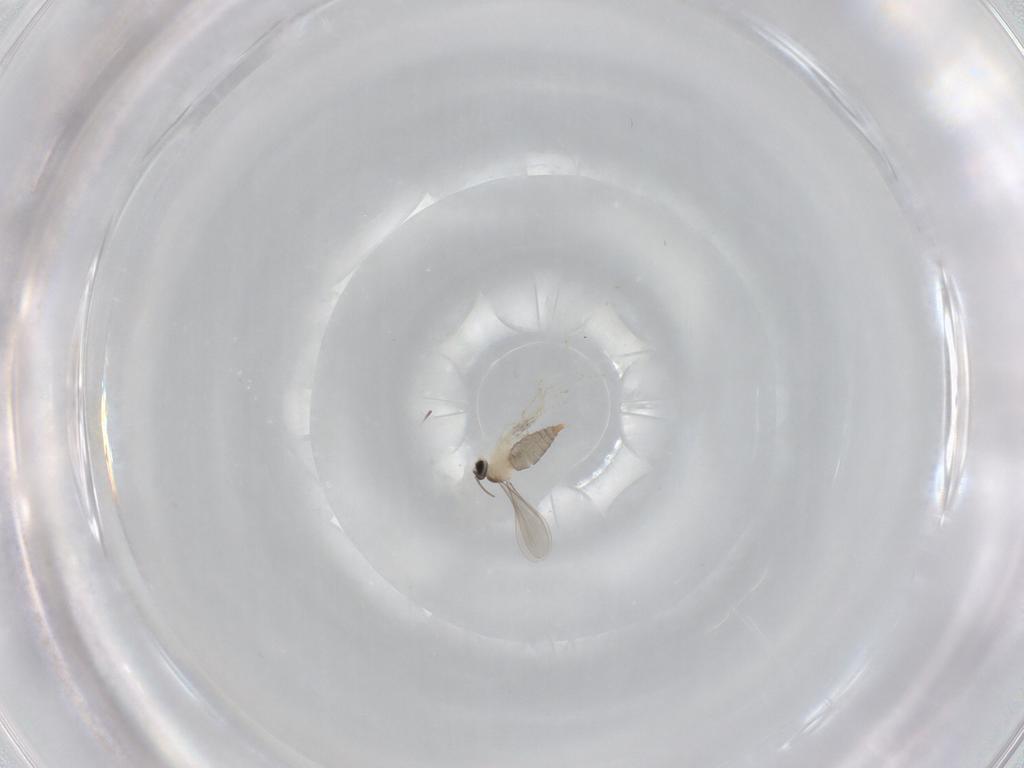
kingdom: Animalia
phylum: Arthropoda
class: Insecta
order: Diptera
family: Cecidomyiidae
